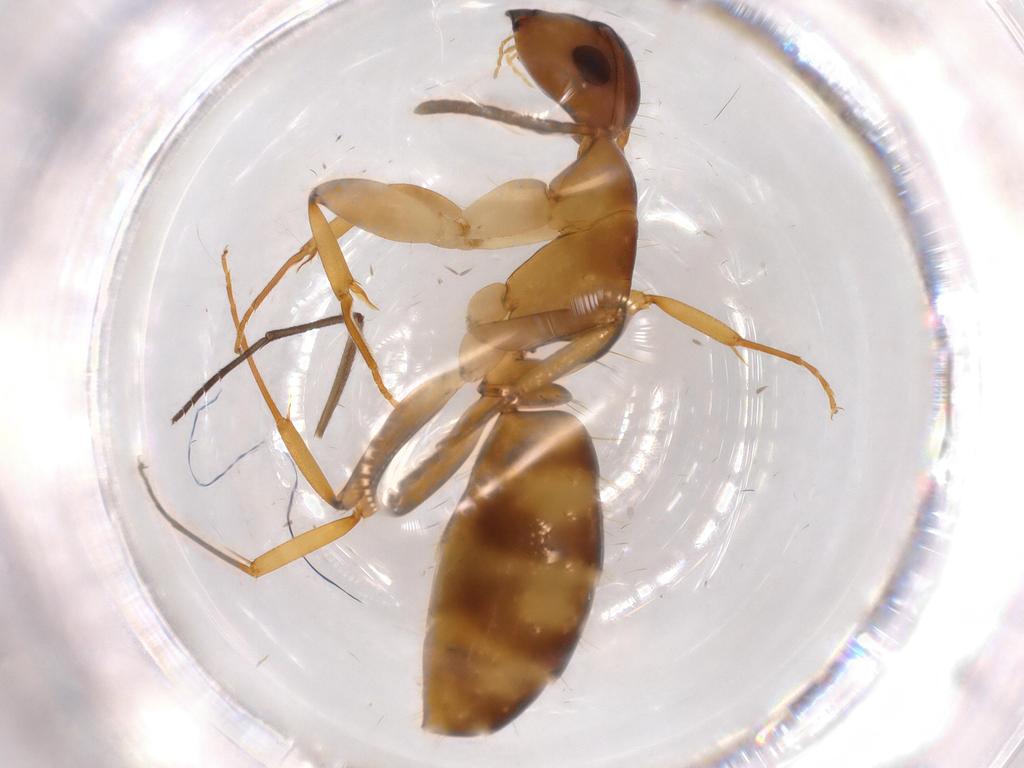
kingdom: Animalia
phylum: Arthropoda
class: Insecta
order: Hymenoptera
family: Formicidae
